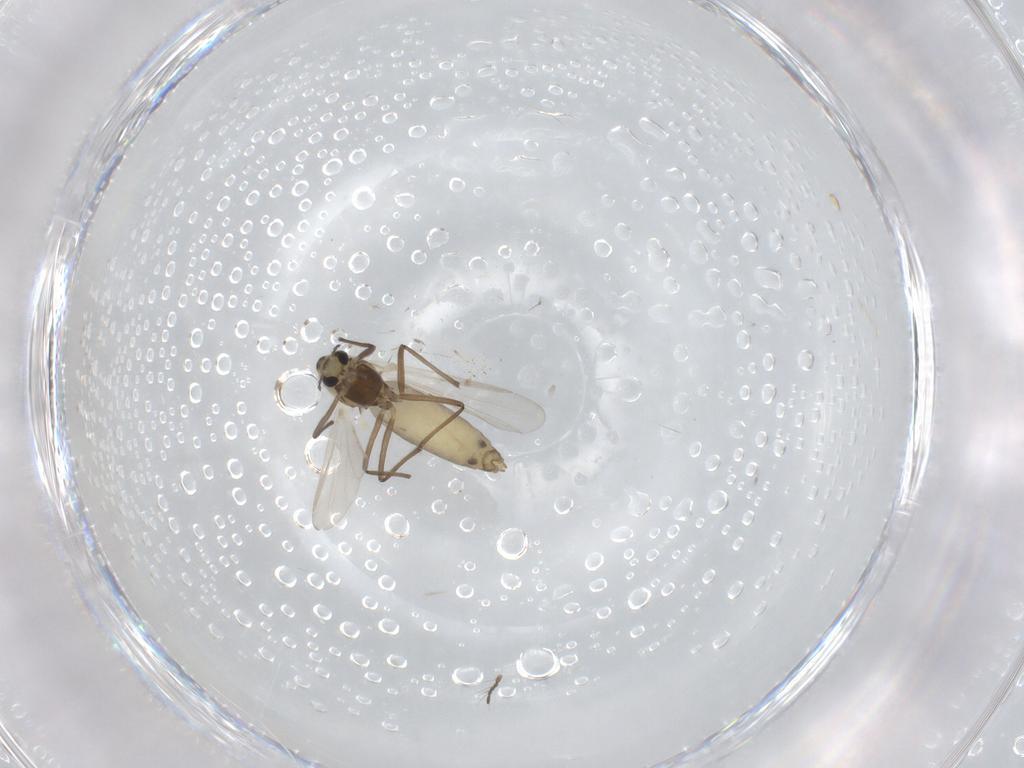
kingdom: Animalia
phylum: Arthropoda
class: Insecta
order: Diptera
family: Chironomidae
